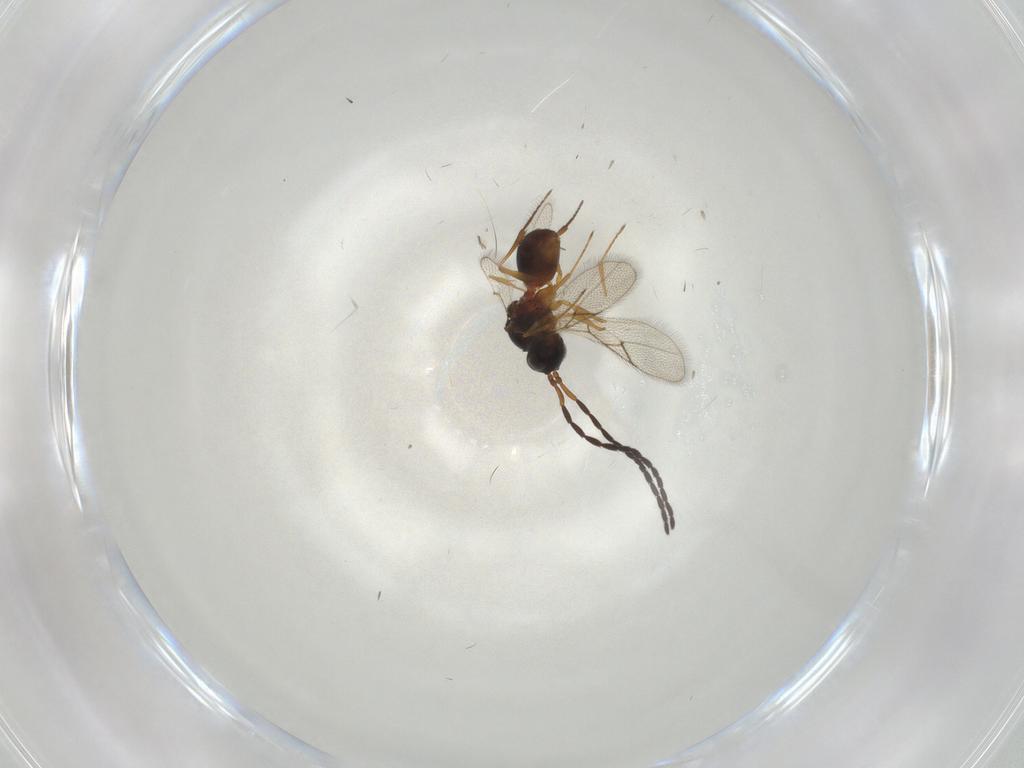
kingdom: Animalia
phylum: Arthropoda
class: Insecta
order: Hymenoptera
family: Figitidae
